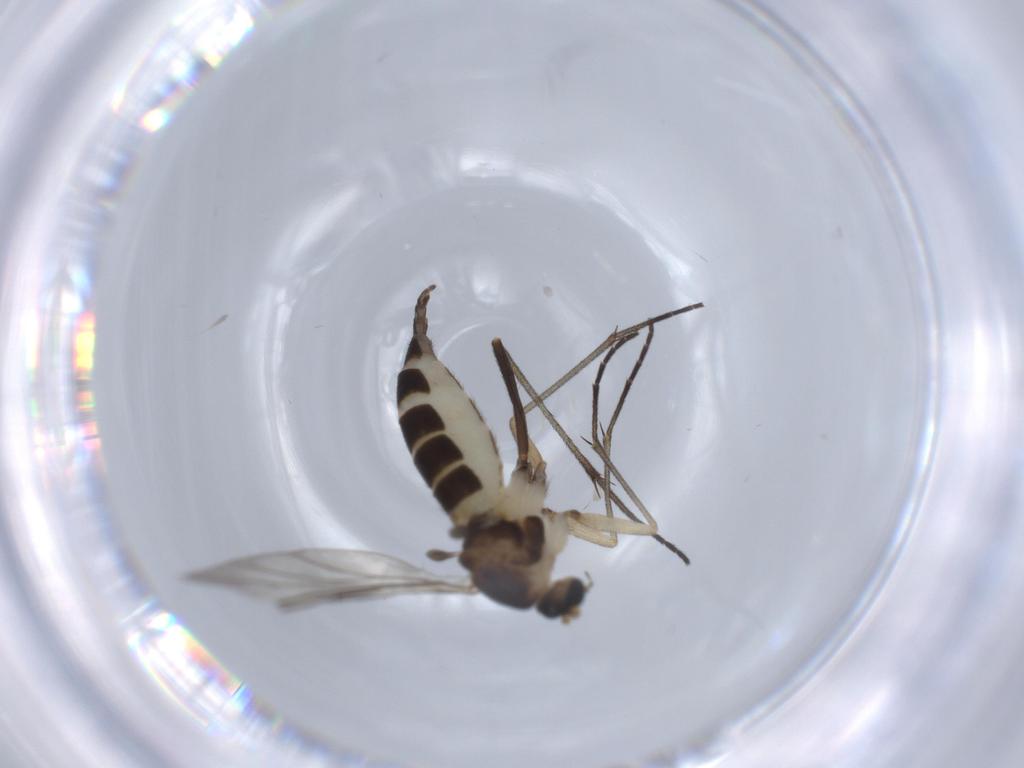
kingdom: Animalia
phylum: Arthropoda
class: Insecta
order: Diptera
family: Sciaridae
